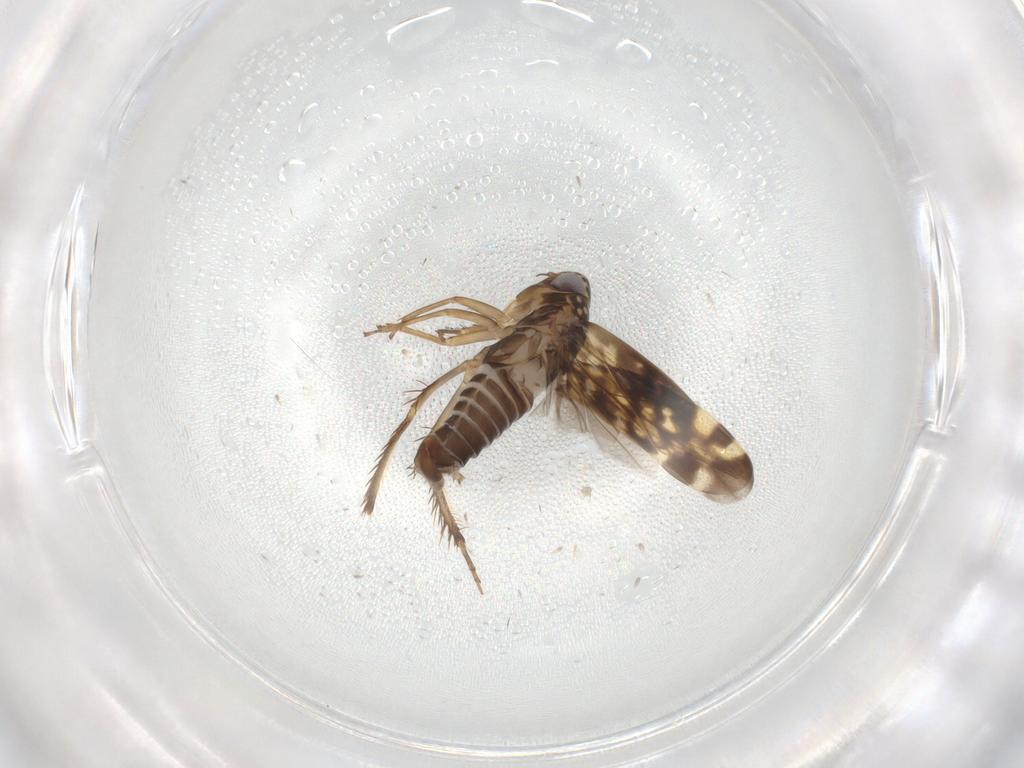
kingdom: Animalia
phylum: Arthropoda
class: Insecta
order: Hemiptera
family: Cicadellidae
